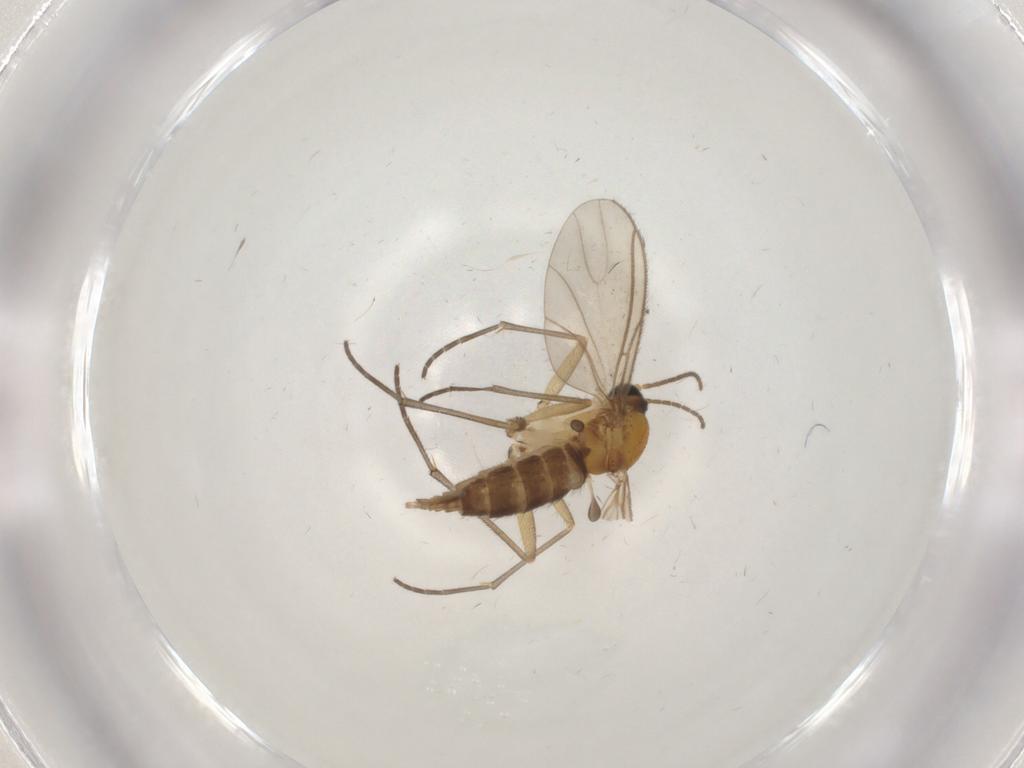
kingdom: Animalia
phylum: Arthropoda
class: Insecta
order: Diptera
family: Sciaridae
